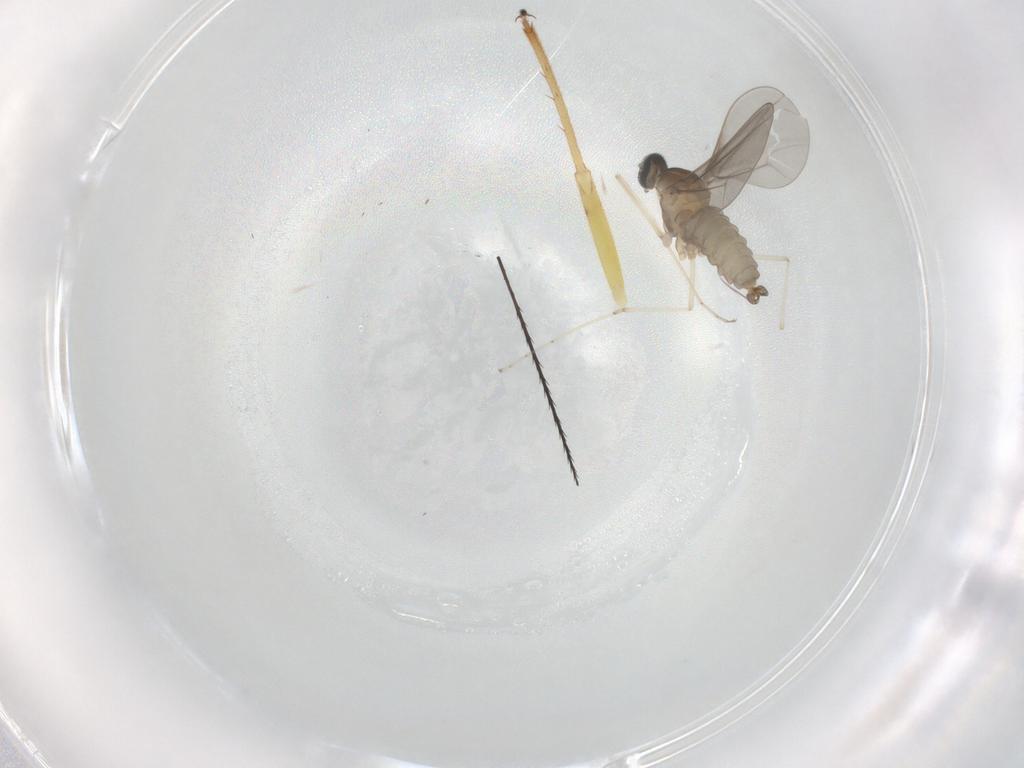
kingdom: Animalia
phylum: Arthropoda
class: Insecta
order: Diptera
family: Cecidomyiidae
